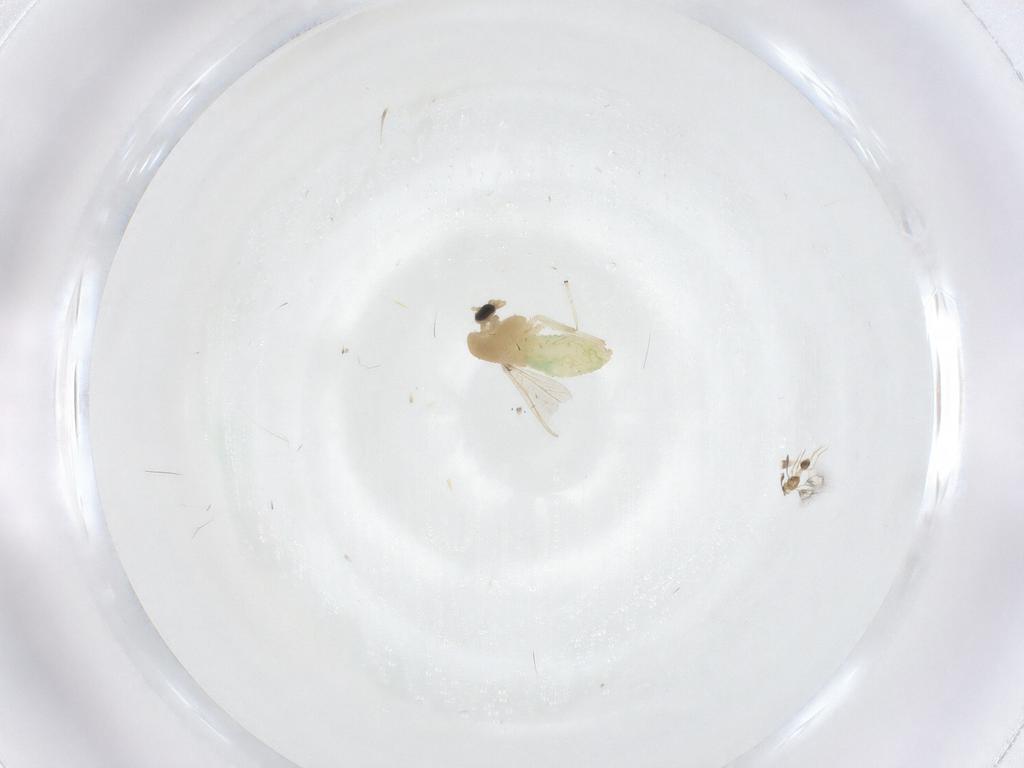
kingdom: Animalia
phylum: Arthropoda
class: Insecta
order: Diptera
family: Chironomidae
